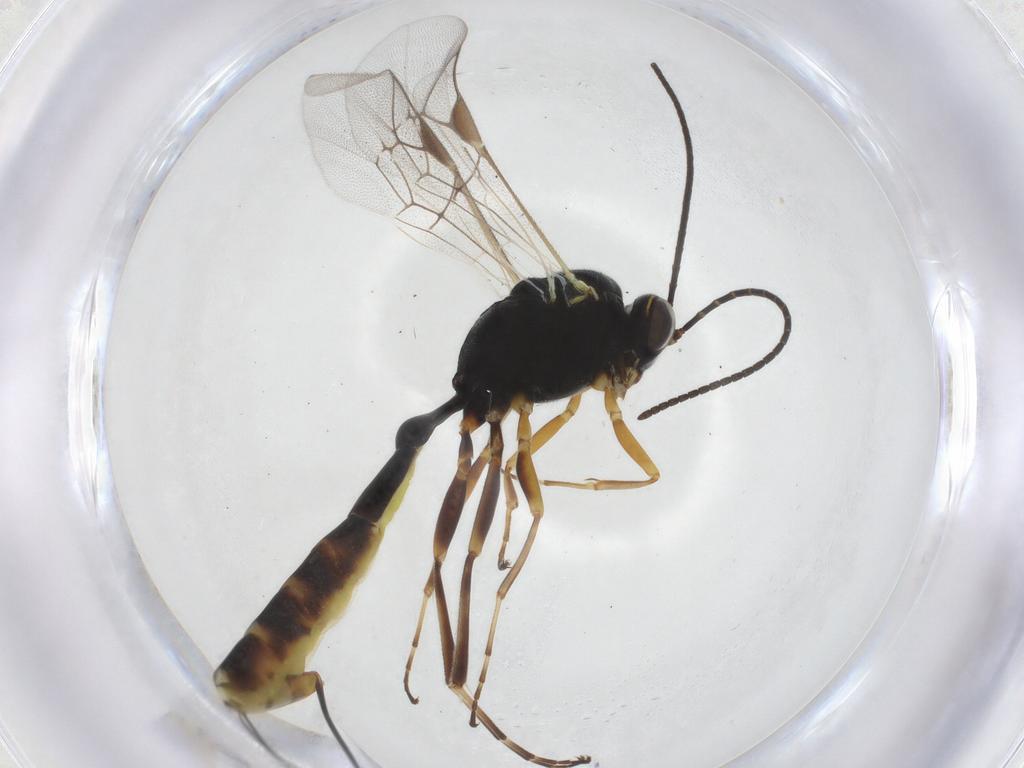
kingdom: Animalia
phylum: Arthropoda
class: Insecta
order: Hymenoptera
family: Ichneumonidae
